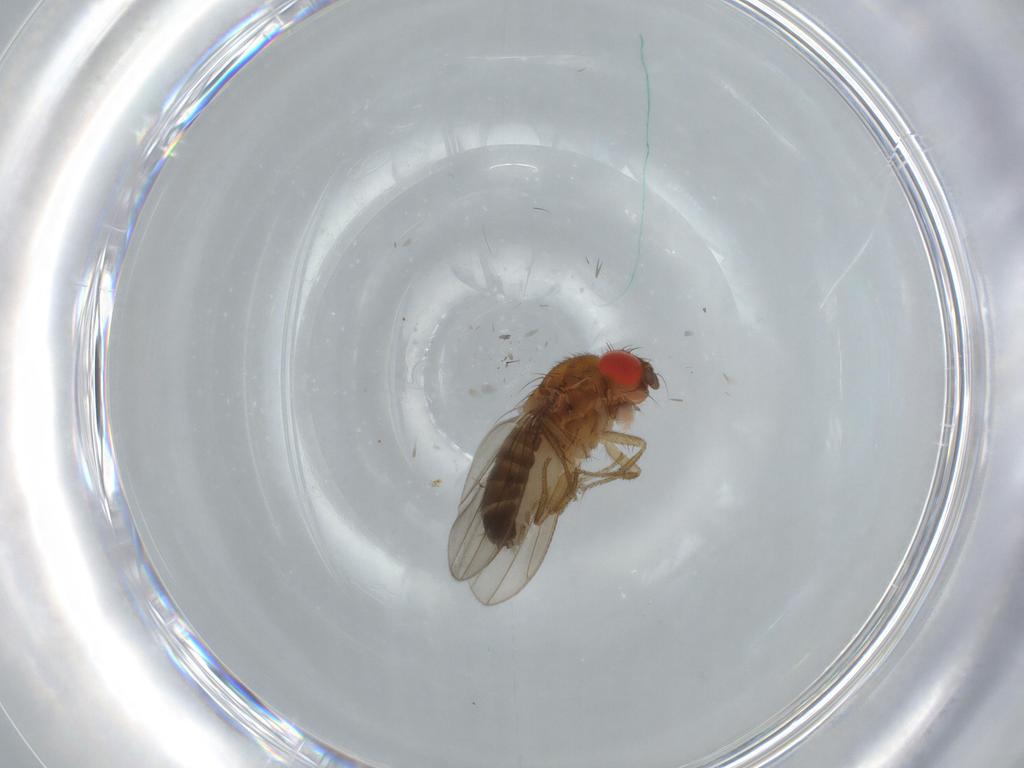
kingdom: Animalia
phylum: Arthropoda
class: Insecta
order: Diptera
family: Drosophilidae
